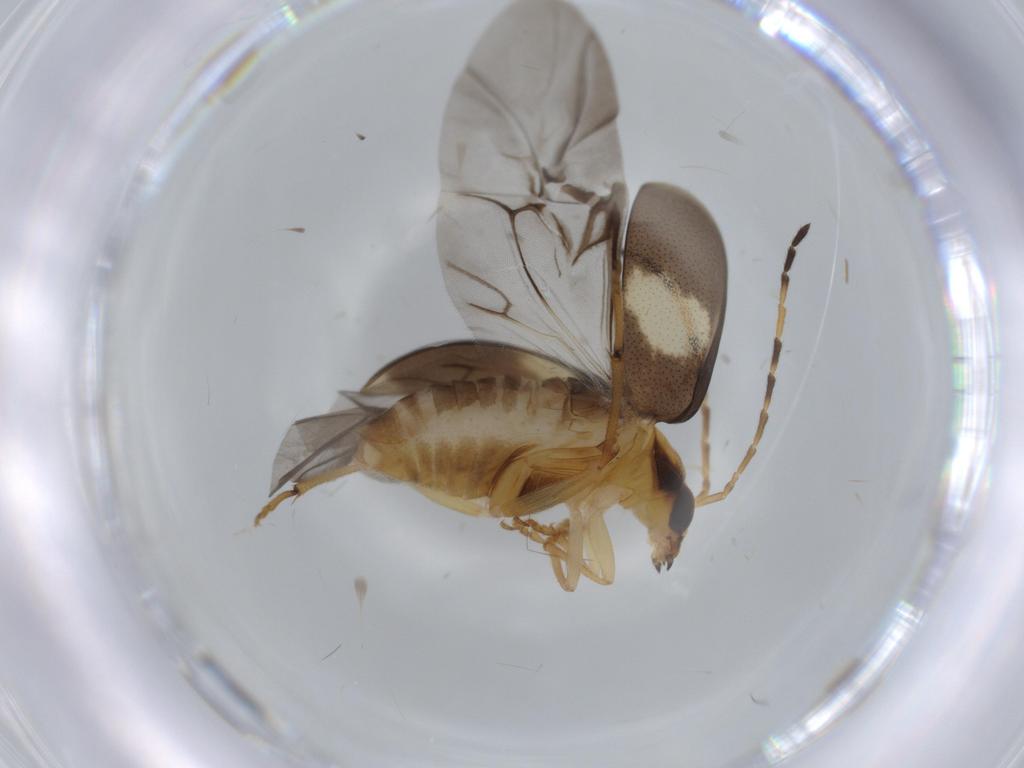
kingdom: Animalia
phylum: Arthropoda
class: Insecta
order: Coleoptera
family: Chrysomelidae
